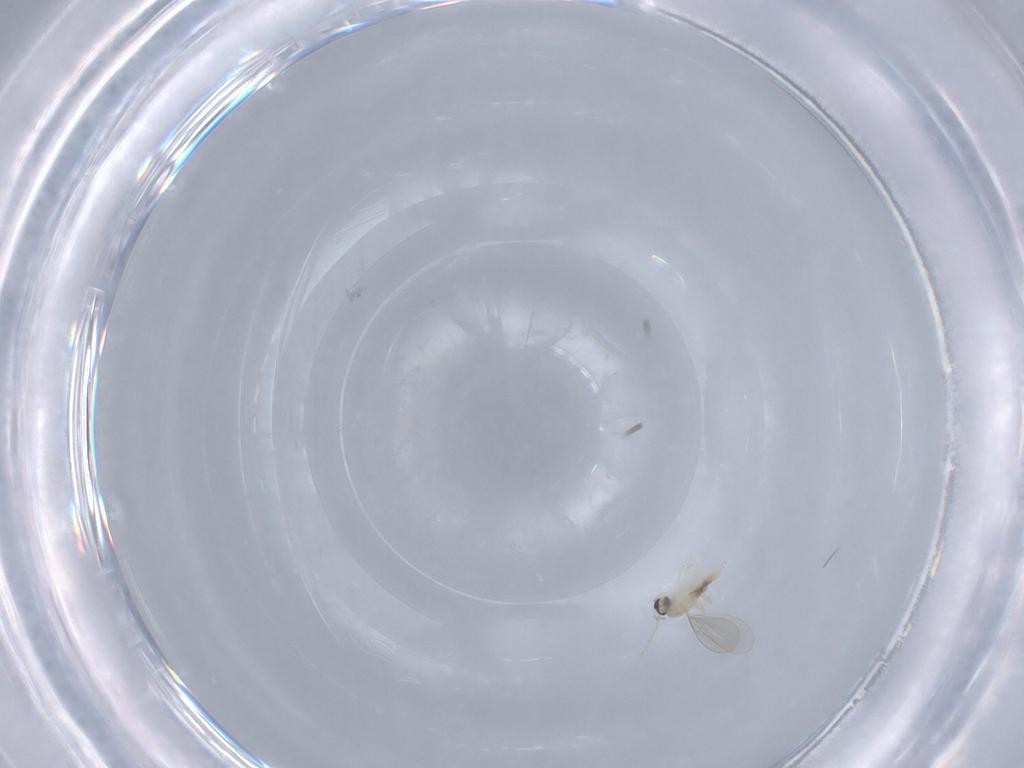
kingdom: Animalia
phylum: Arthropoda
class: Insecta
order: Diptera
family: Cecidomyiidae
